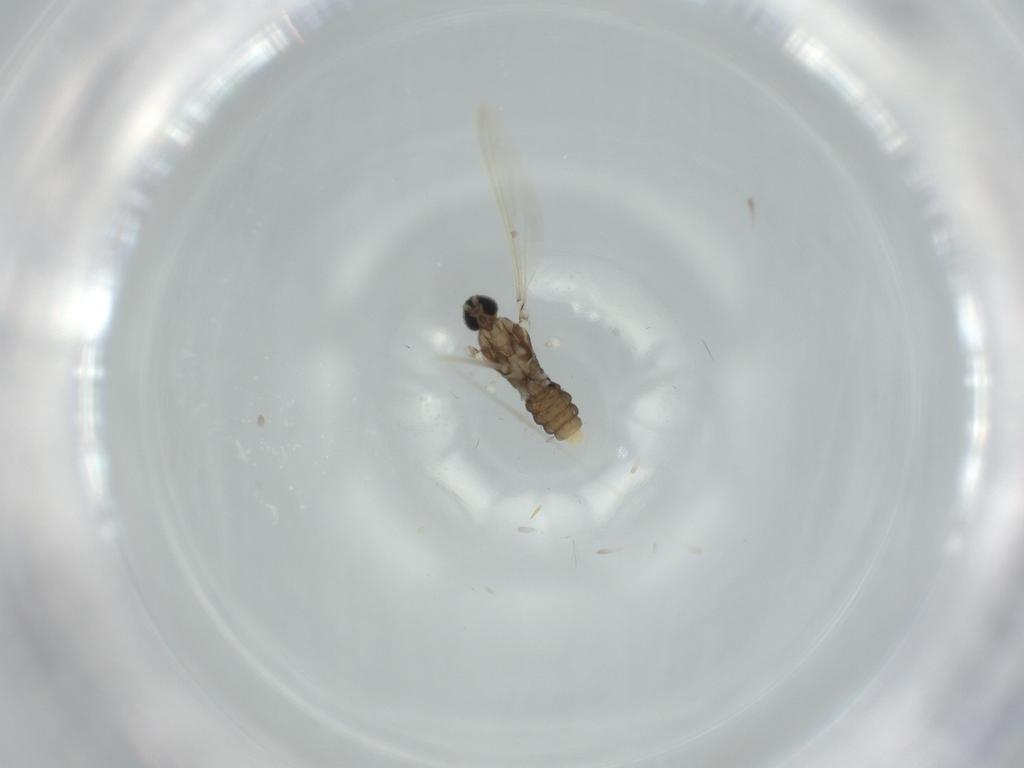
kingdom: Animalia
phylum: Arthropoda
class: Insecta
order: Diptera
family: Cecidomyiidae
